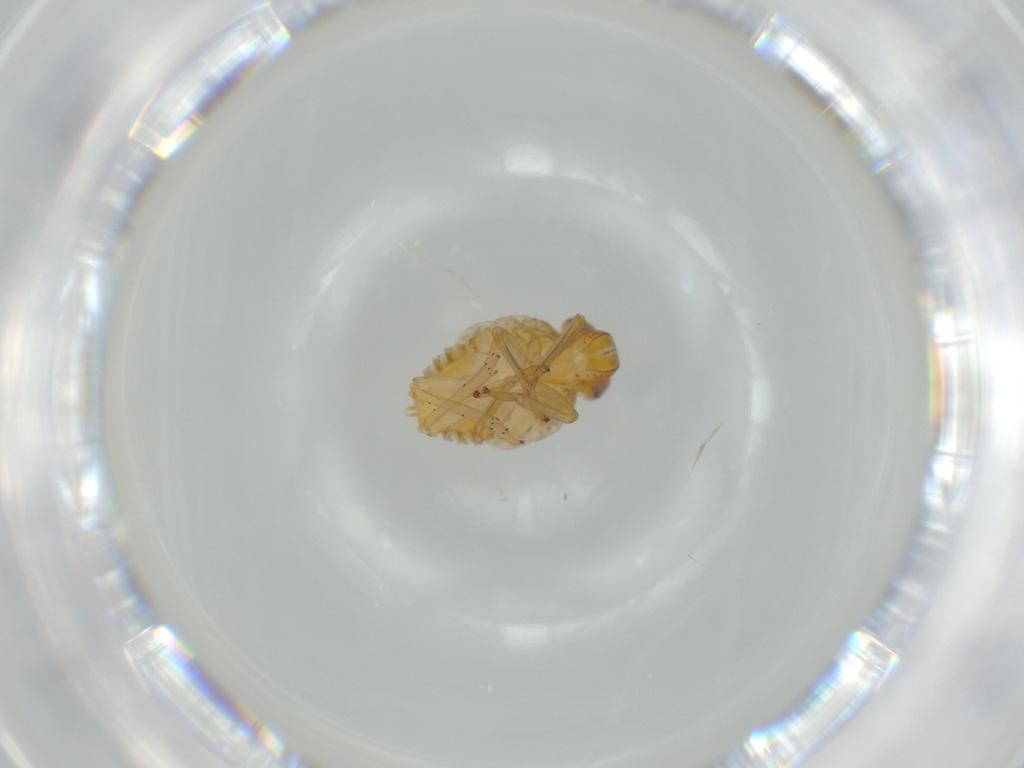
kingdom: Animalia
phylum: Arthropoda
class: Insecta
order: Hemiptera
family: Issidae
